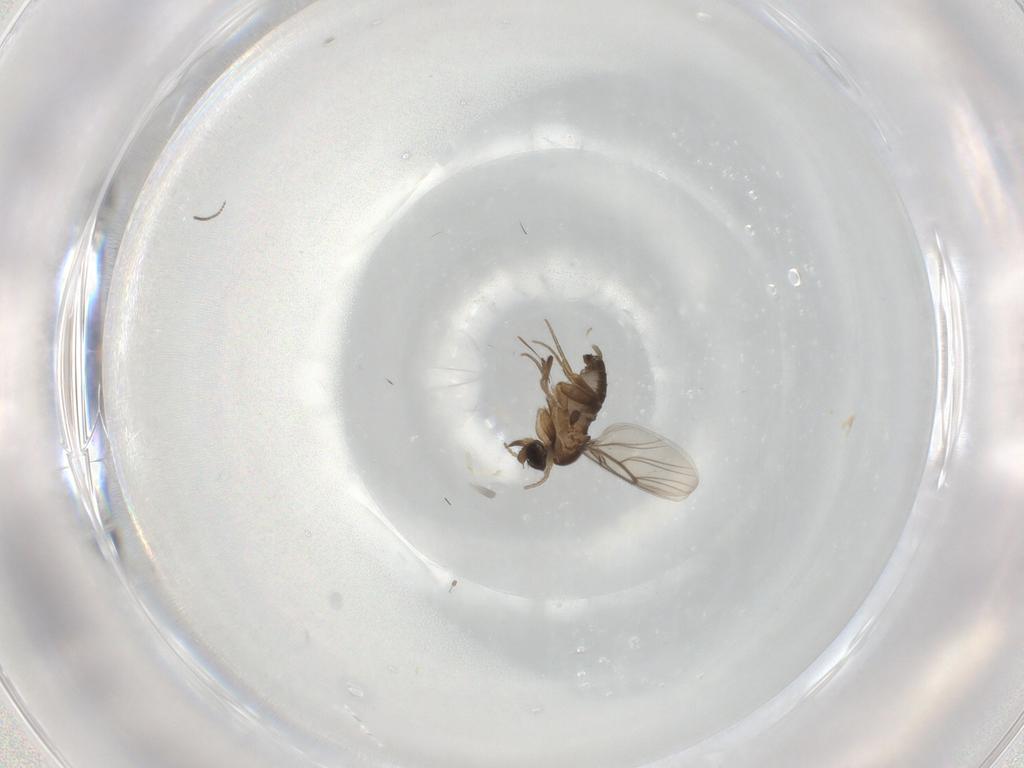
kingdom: Animalia
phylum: Arthropoda
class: Insecta
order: Diptera
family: Phoridae
